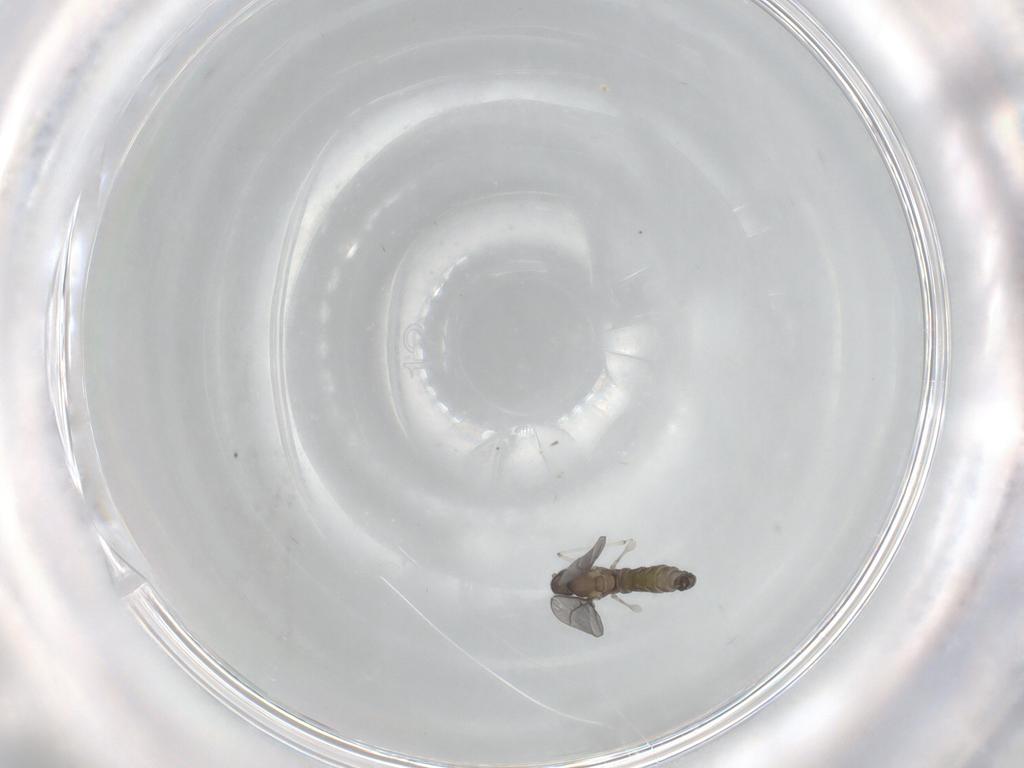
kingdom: Animalia
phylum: Arthropoda
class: Insecta
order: Diptera
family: Cecidomyiidae
